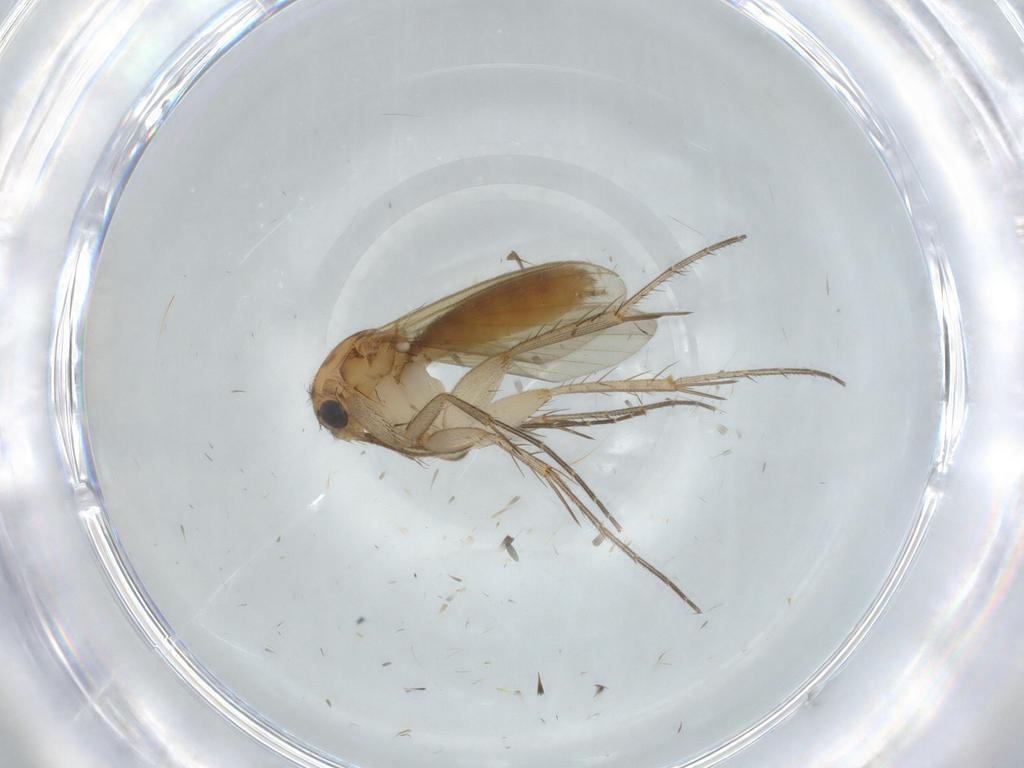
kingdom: Animalia
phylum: Arthropoda
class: Insecta
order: Diptera
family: Mycetophilidae
